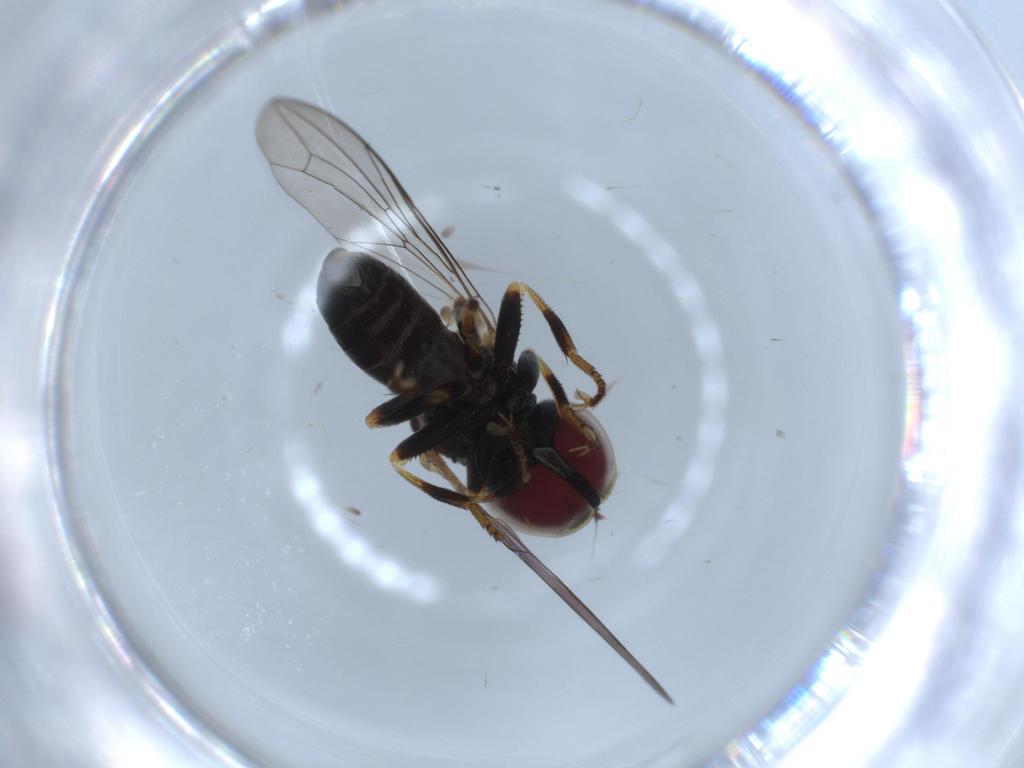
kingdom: Animalia
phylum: Arthropoda
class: Insecta
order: Diptera
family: Pipunculidae
